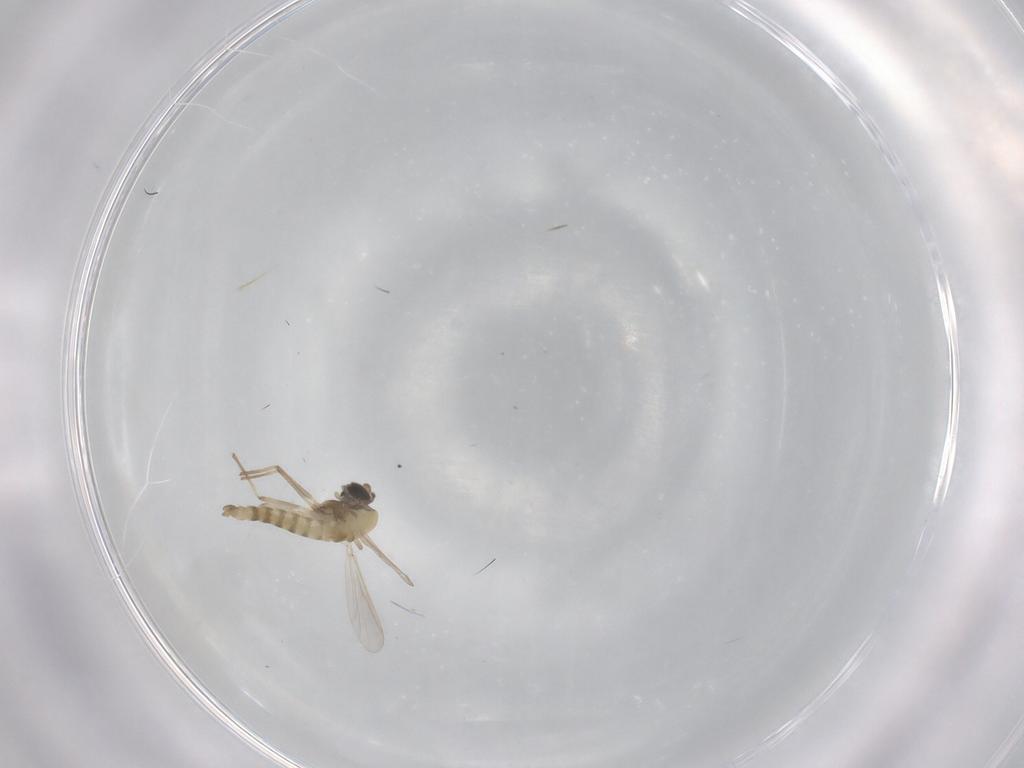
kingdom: Animalia
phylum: Arthropoda
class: Insecta
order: Diptera
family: Chironomidae
